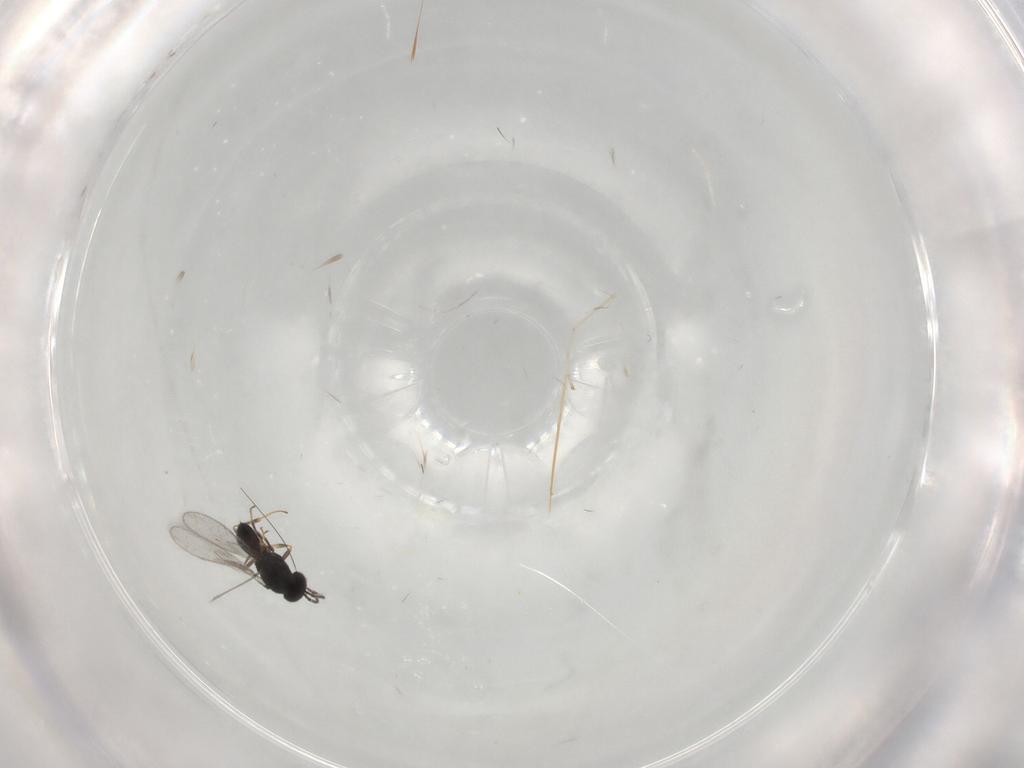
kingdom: Animalia
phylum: Arthropoda
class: Insecta
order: Hymenoptera
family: Scelionidae
